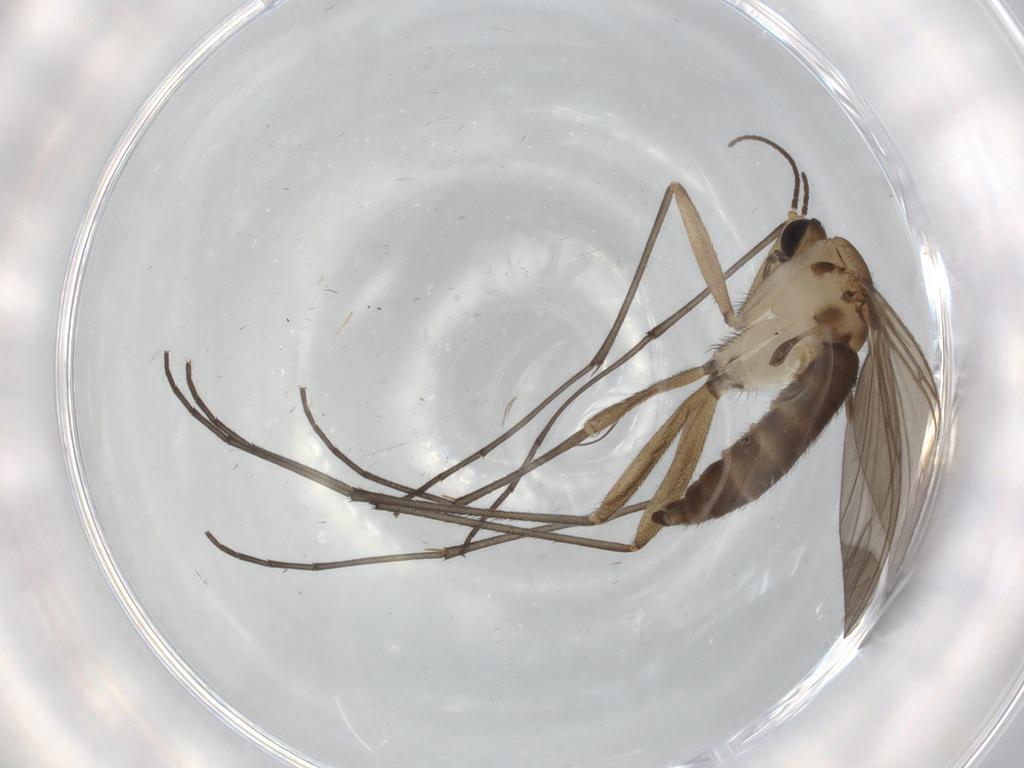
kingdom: Animalia
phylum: Arthropoda
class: Insecta
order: Diptera
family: Sciaridae
